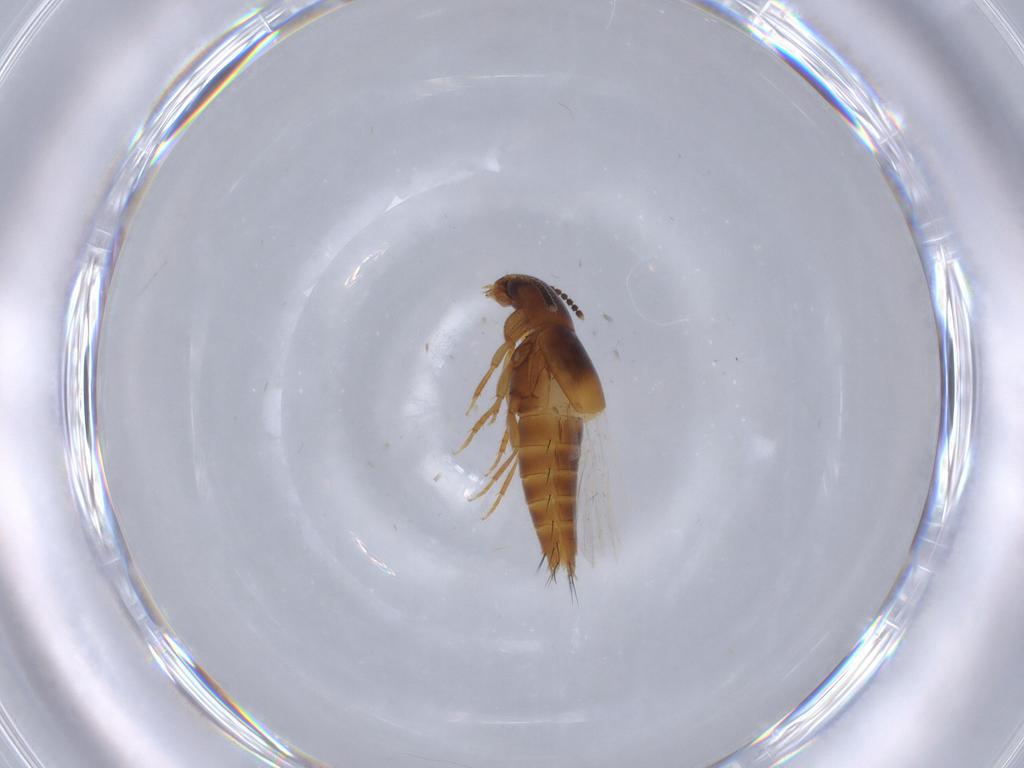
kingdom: Animalia
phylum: Arthropoda
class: Insecta
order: Coleoptera
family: Staphylinidae
